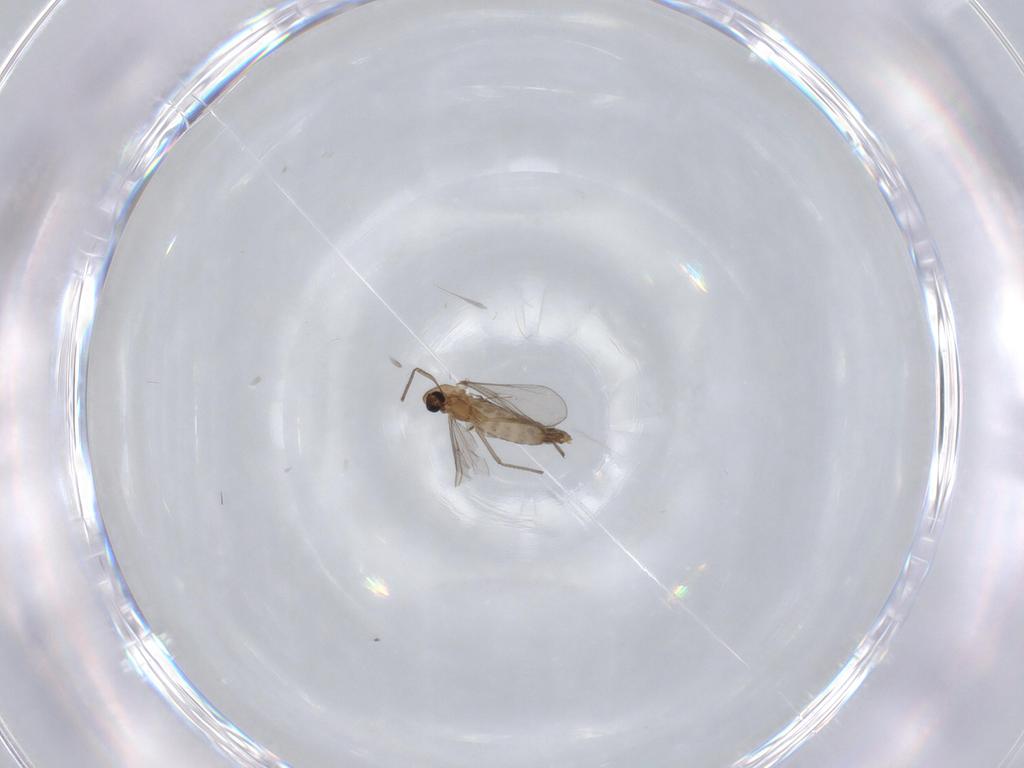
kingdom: Animalia
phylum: Arthropoda
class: Insecta
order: Diptera
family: Chironomidae
